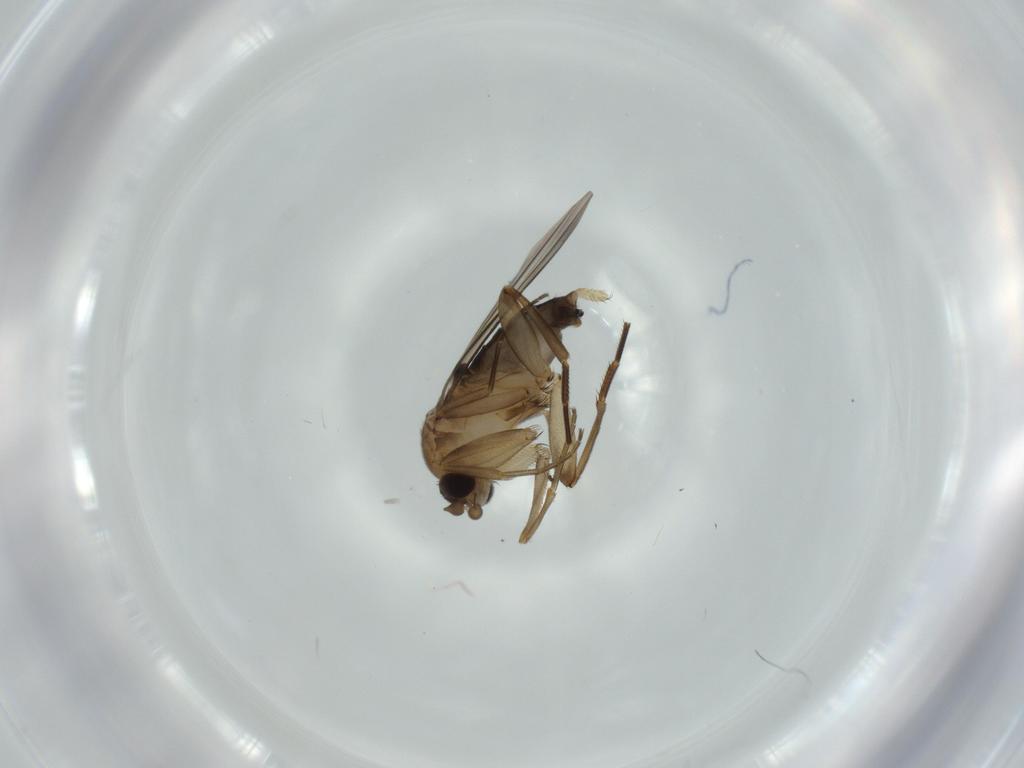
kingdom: Animalia
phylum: Arthropoda
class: Insecta
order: Diptera
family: Phoridae
